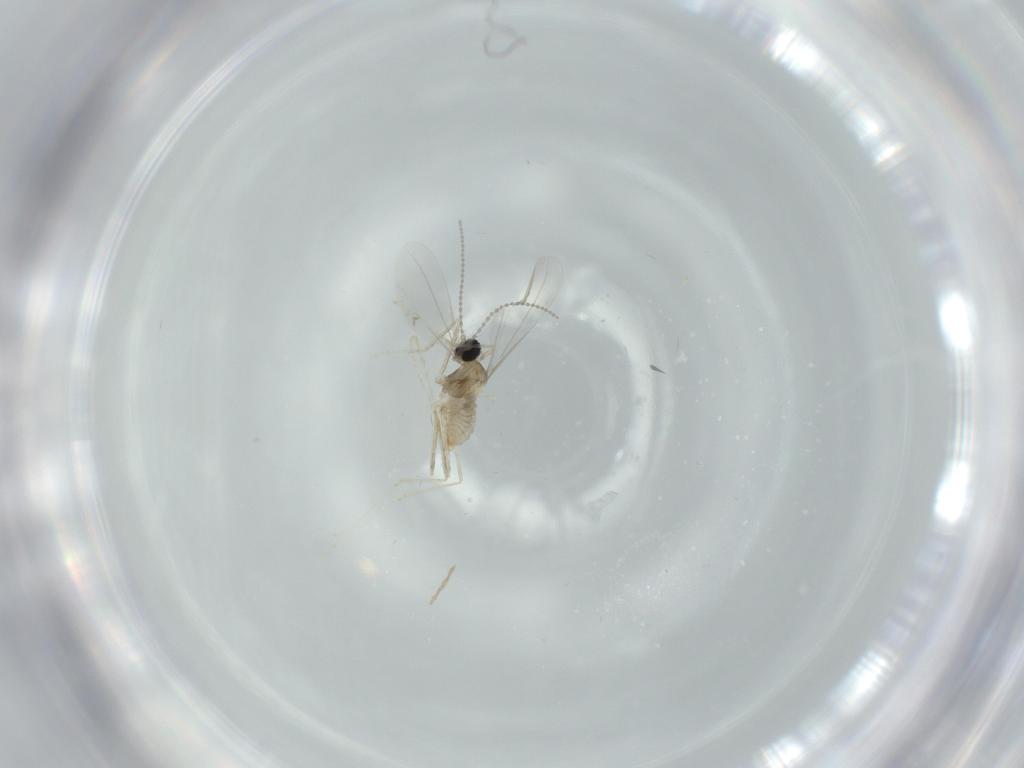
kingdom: Animalia
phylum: Arthropoda
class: Insecta
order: Diptera
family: Cecidomyiidae
